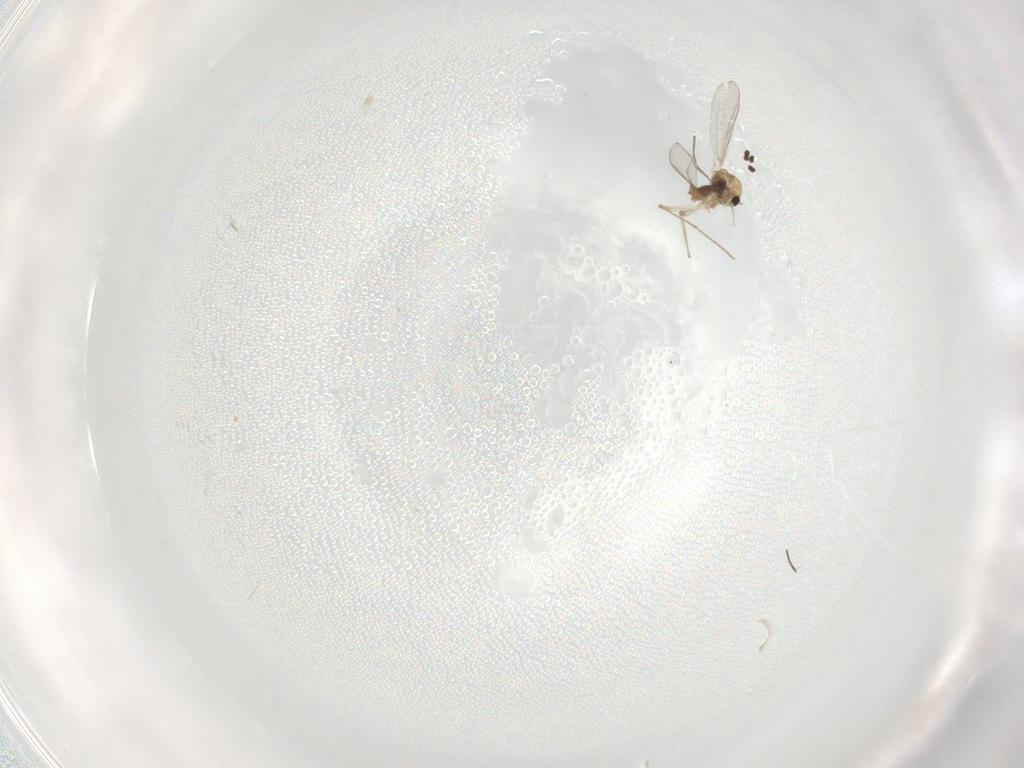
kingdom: Animalia
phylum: Arthropoda
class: Insecta
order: Diptera
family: Chironomidae
